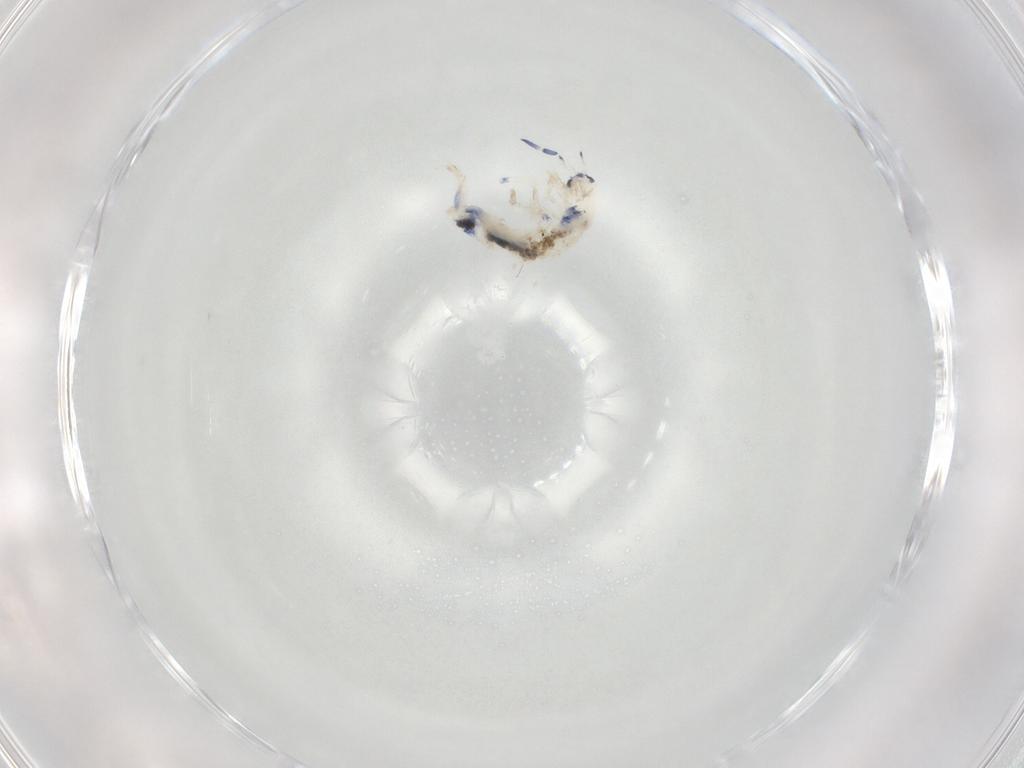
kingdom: Animalia
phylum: Arthropoda
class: Collembola
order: Entomobryomorpha
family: Entomobryidae
